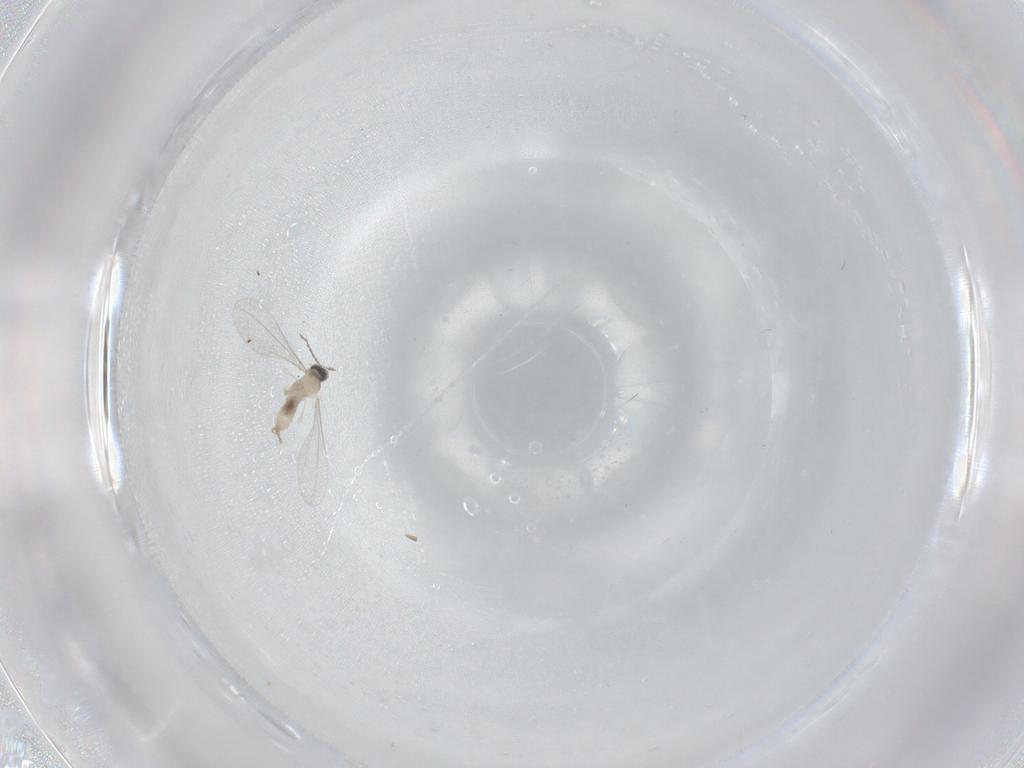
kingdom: Animalia
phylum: Arthropoda
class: Insecta
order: Diptera
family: Cecidomyiidae
